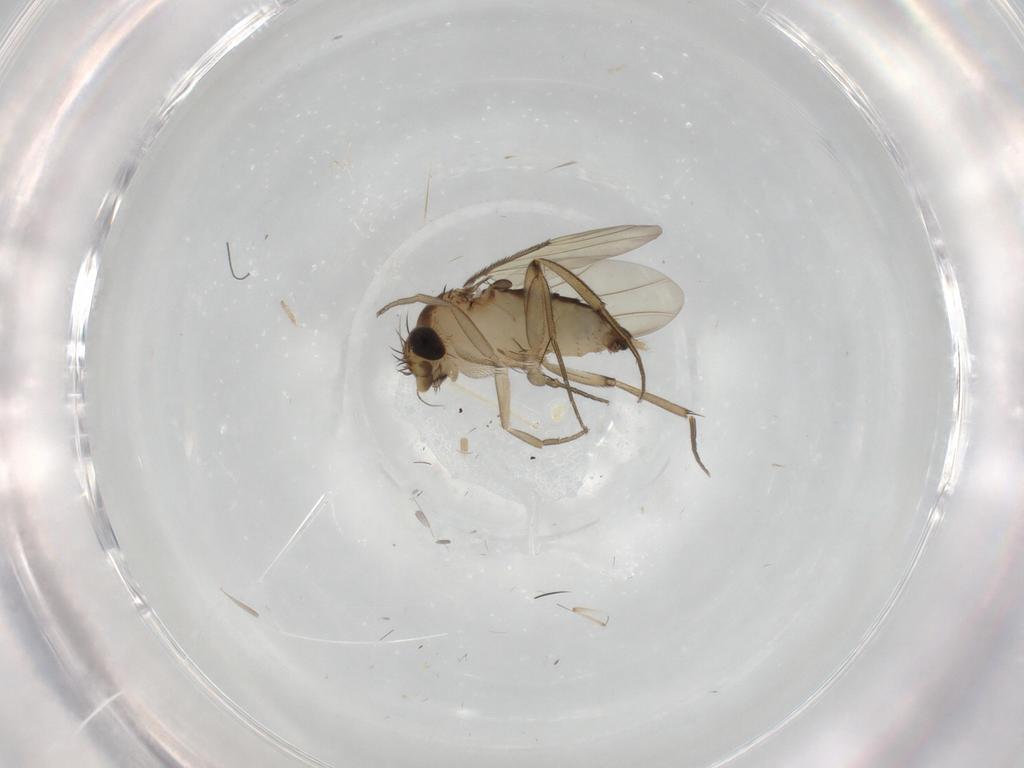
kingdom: Animalia
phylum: Arthropoda
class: Insecta
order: Diptera
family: Phoridae
